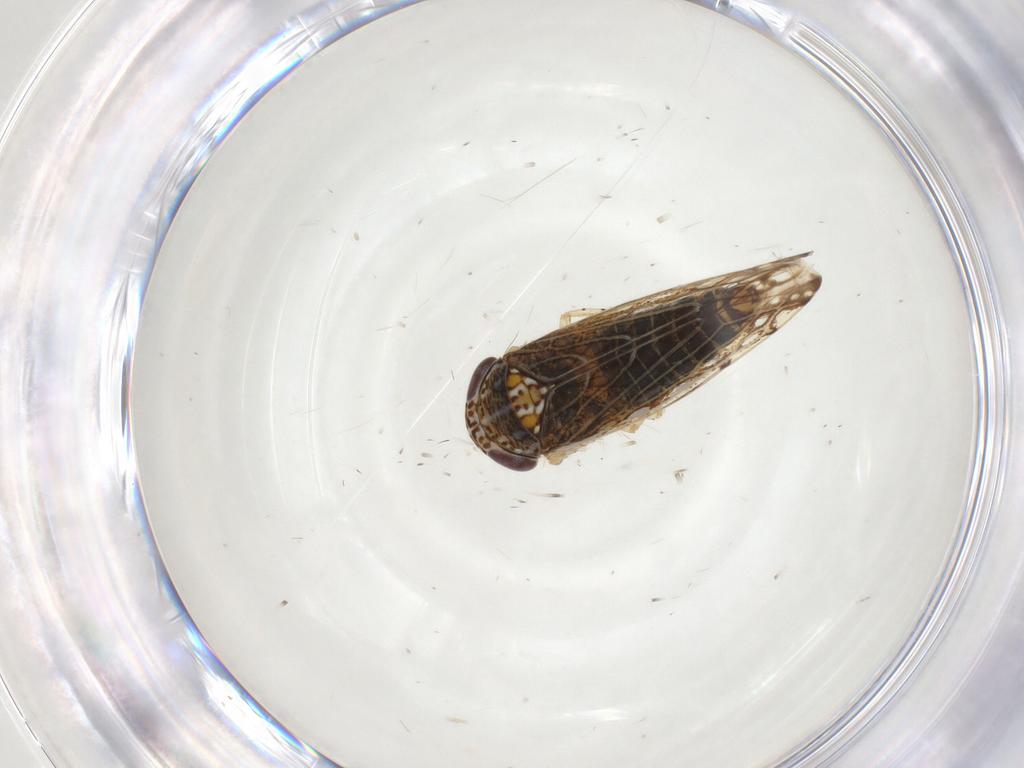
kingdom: Animalia
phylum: Arthropoda
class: Insecta
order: Hemiptera
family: Cicadellidae
